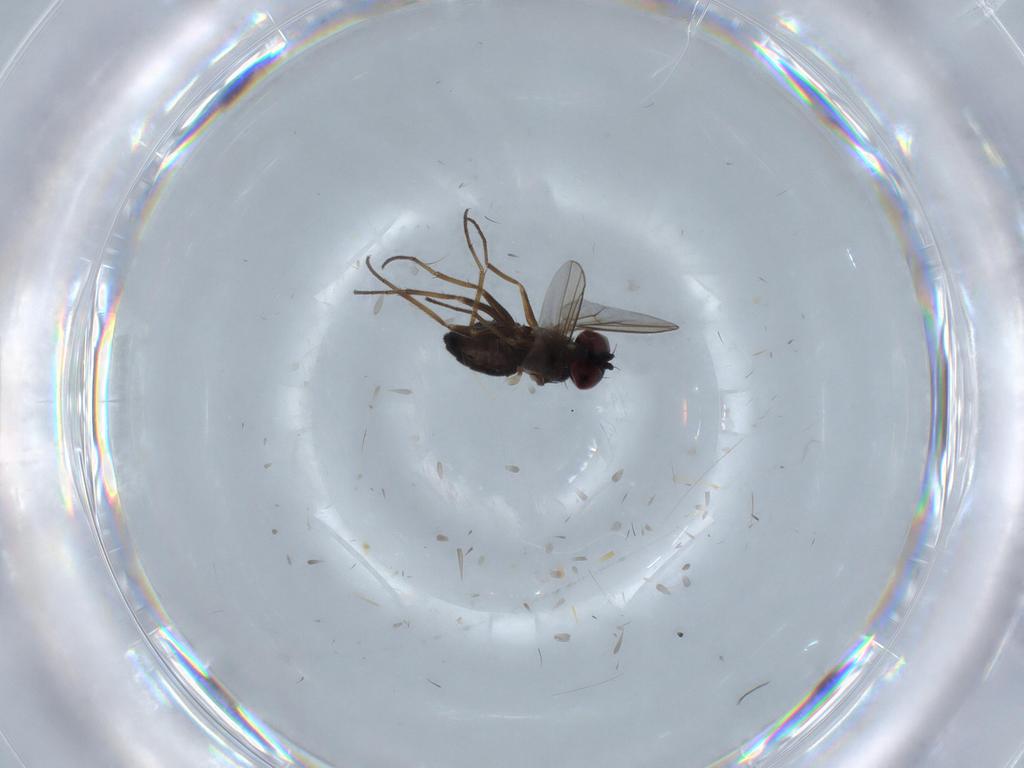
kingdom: Animalia
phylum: Arthropoda
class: Insecta
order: Diptera
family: Dolichopodidae
